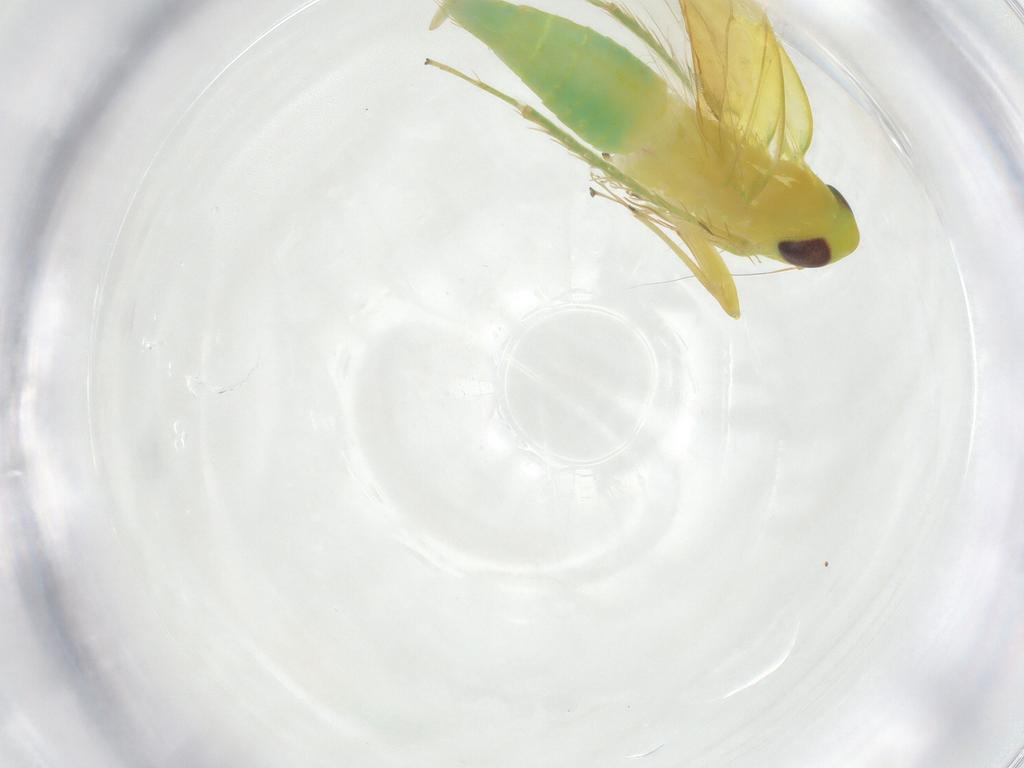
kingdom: Animalia
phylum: Arthropoda
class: Insecta
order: Hemiptera
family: Cicadellidae
